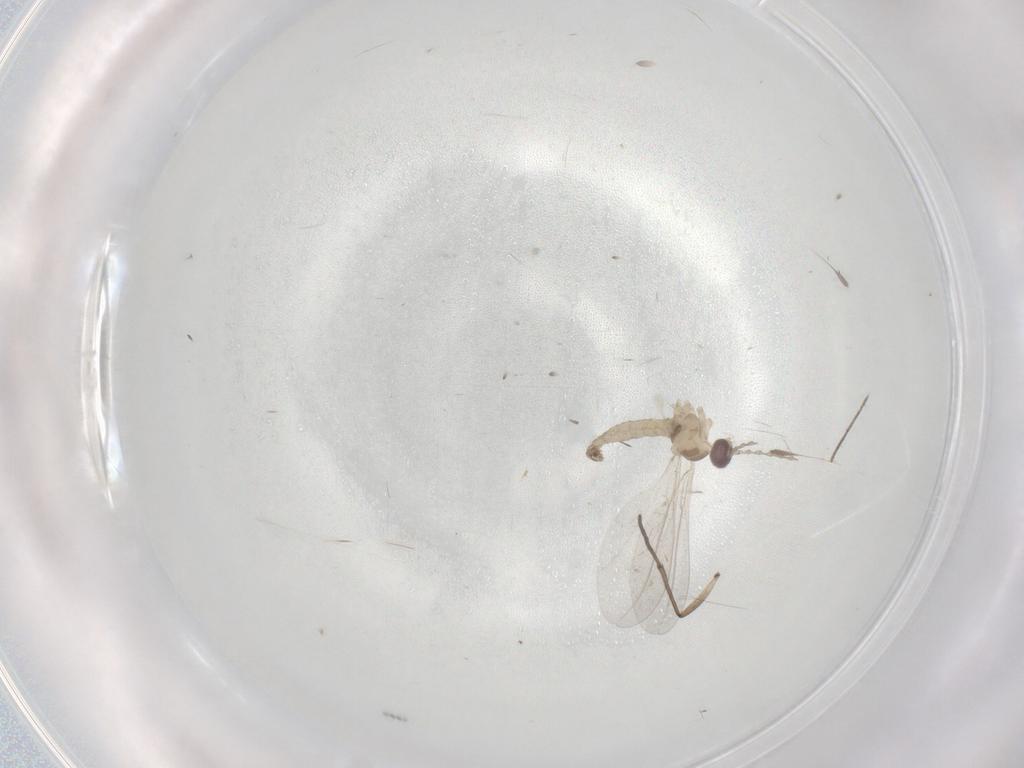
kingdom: Animalia
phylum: Arthropoda
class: Insecta
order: Diptera
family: Cecidomyiidae
